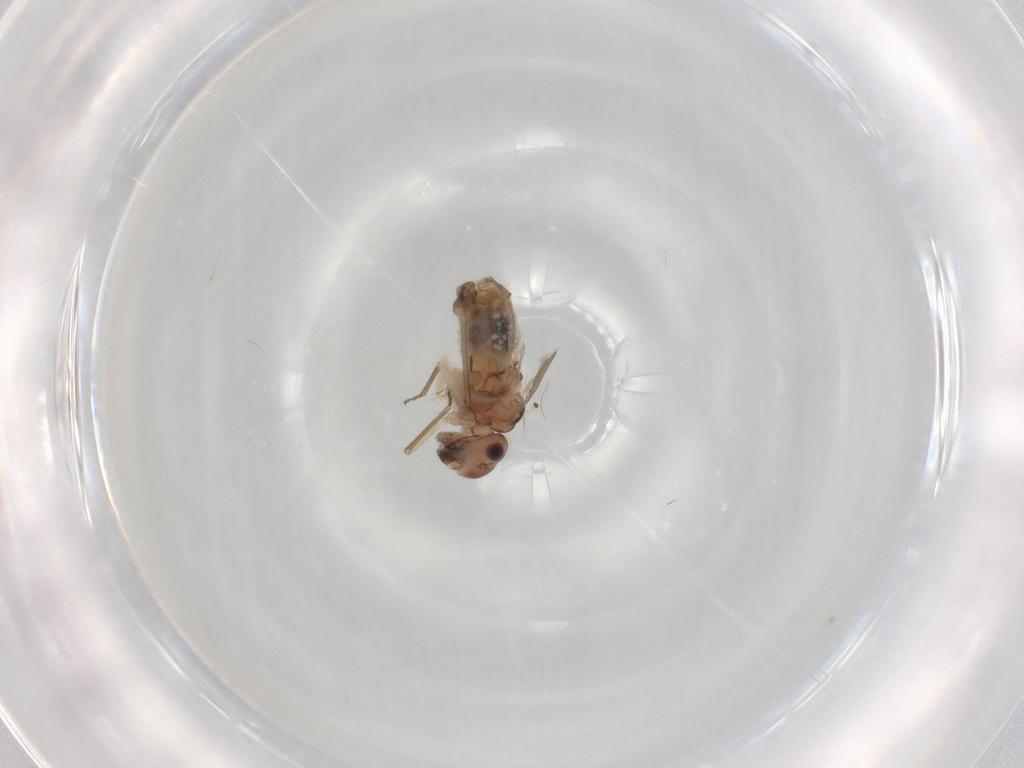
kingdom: Animalia
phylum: Arthropoda
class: Insecta
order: Psocodea
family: Peripsocidae
